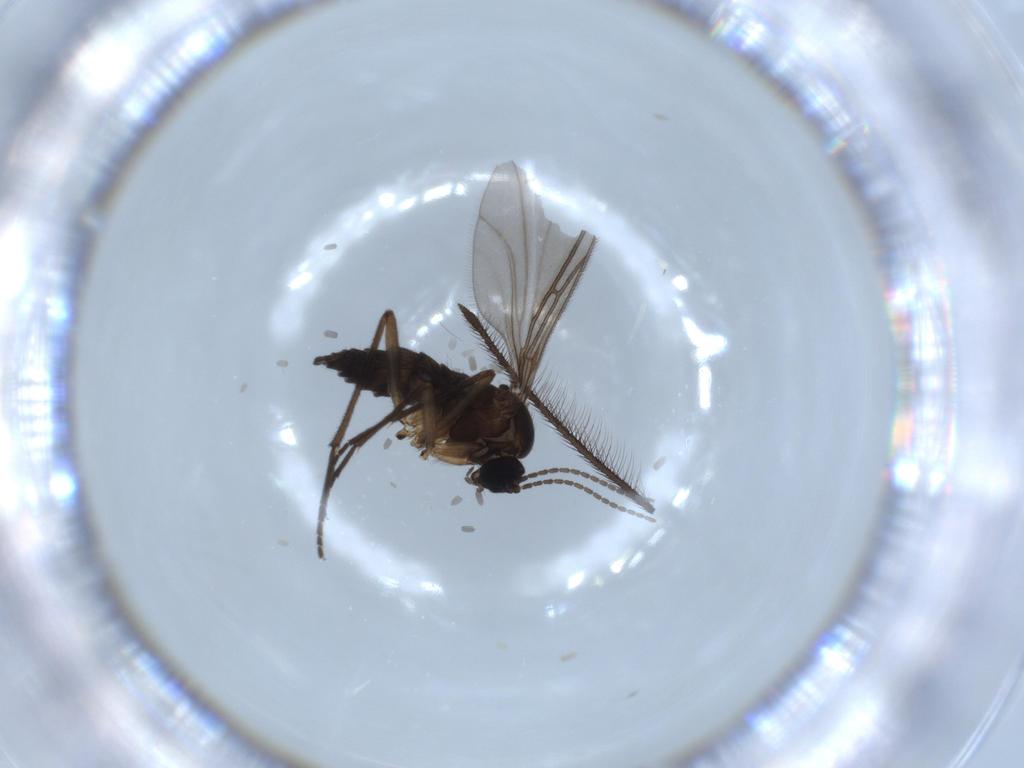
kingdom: Animalia
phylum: Arthropoda
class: Insecta
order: Diptera
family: Sciaridae
